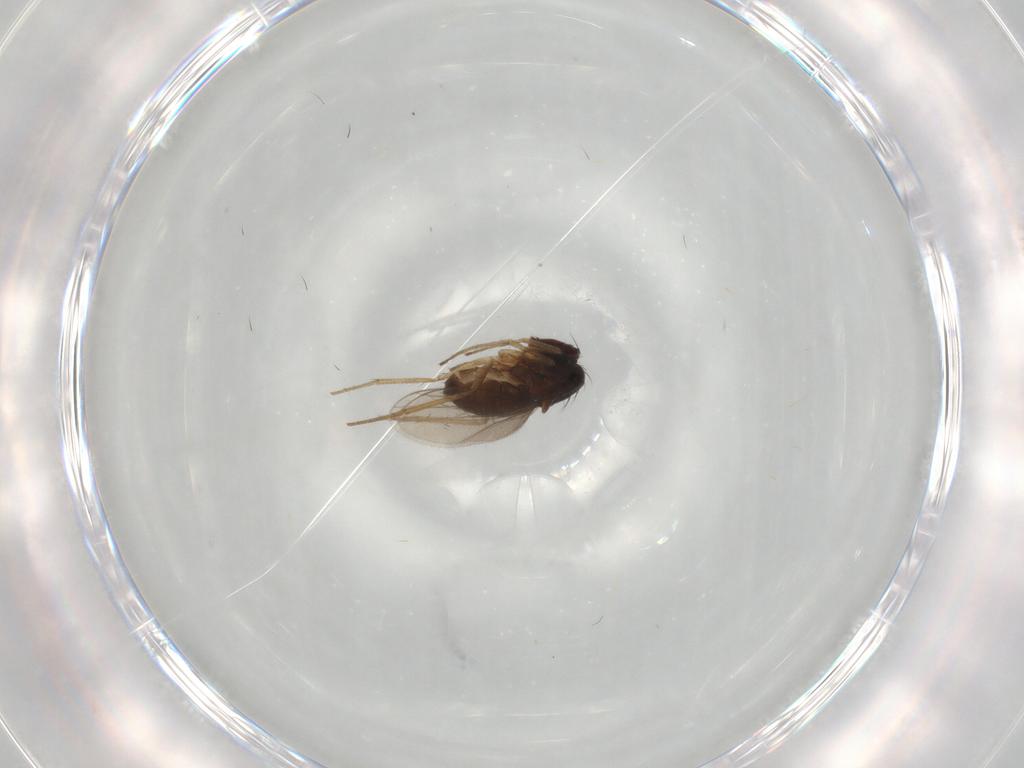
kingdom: Animalia
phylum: Arthropoda
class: Insecta
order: Diptera
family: Dolichopodidae
